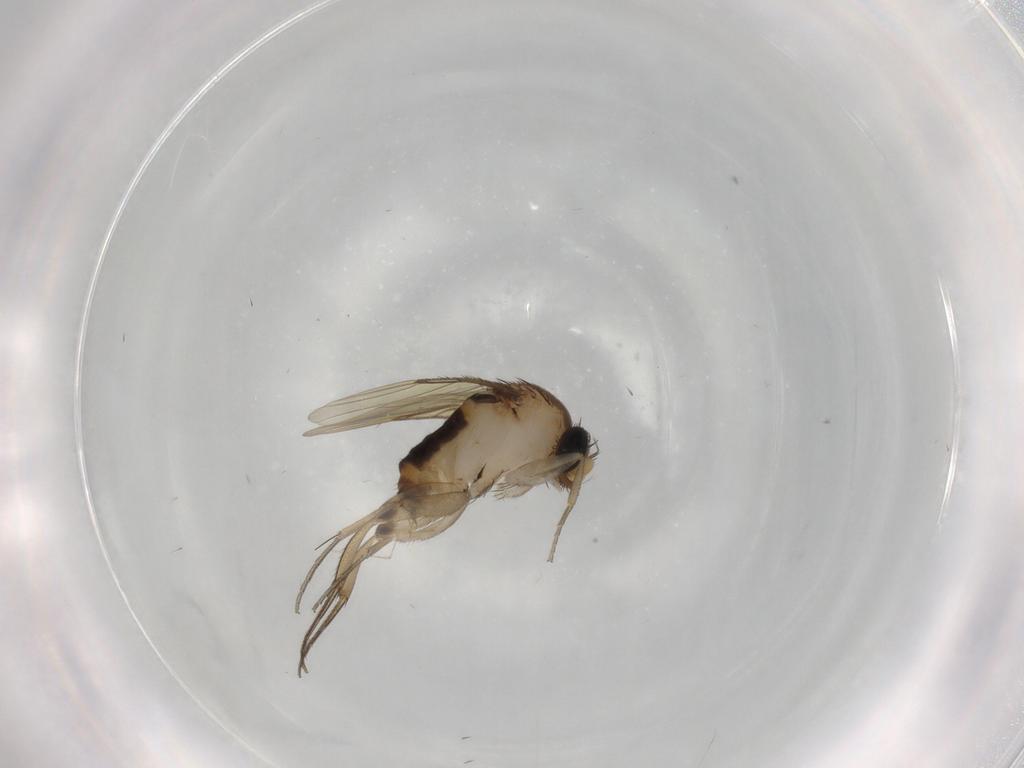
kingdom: Animalia
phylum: Arthropoda
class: Insecta
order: Diptera
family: Phoridae
